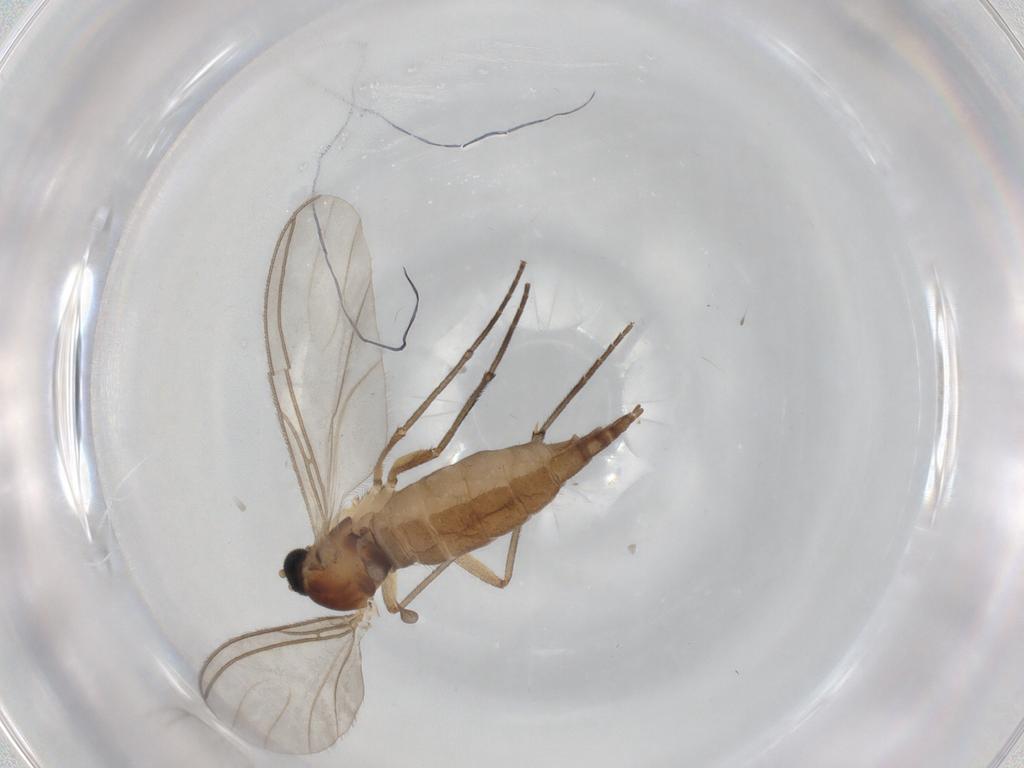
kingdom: Animalia
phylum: Arthropoda
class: Insecta
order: Diptera
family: Sciaridae
